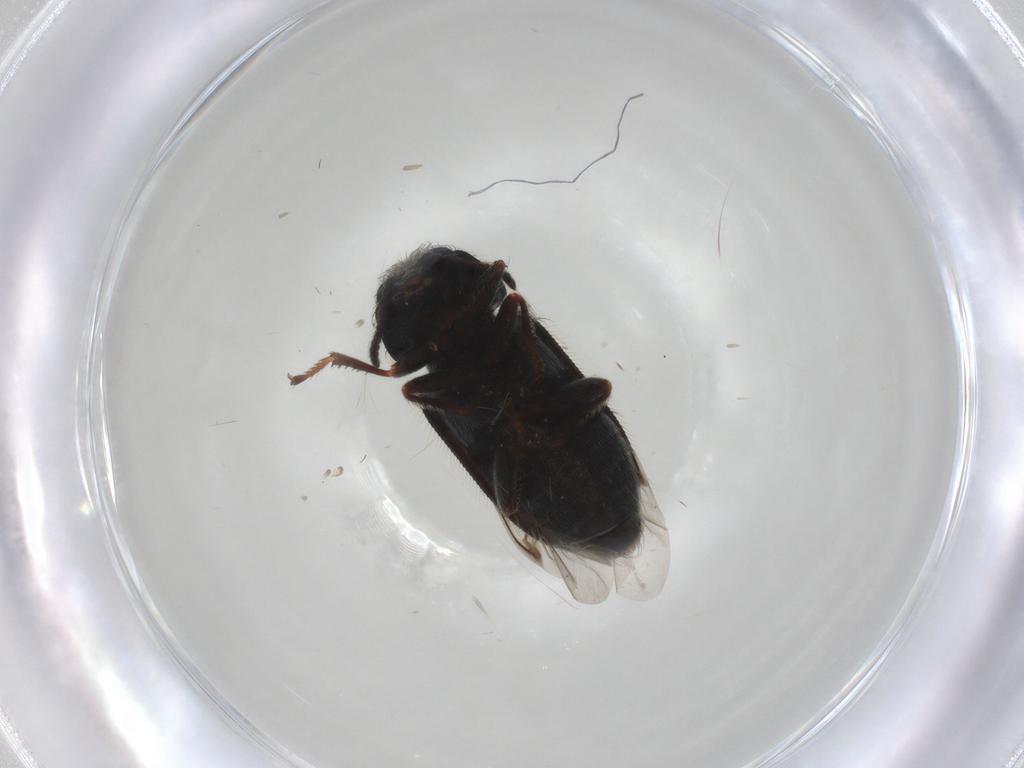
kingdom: Animalia
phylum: Arthropoda
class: Insecta
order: Coleoptera
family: Melyridae
